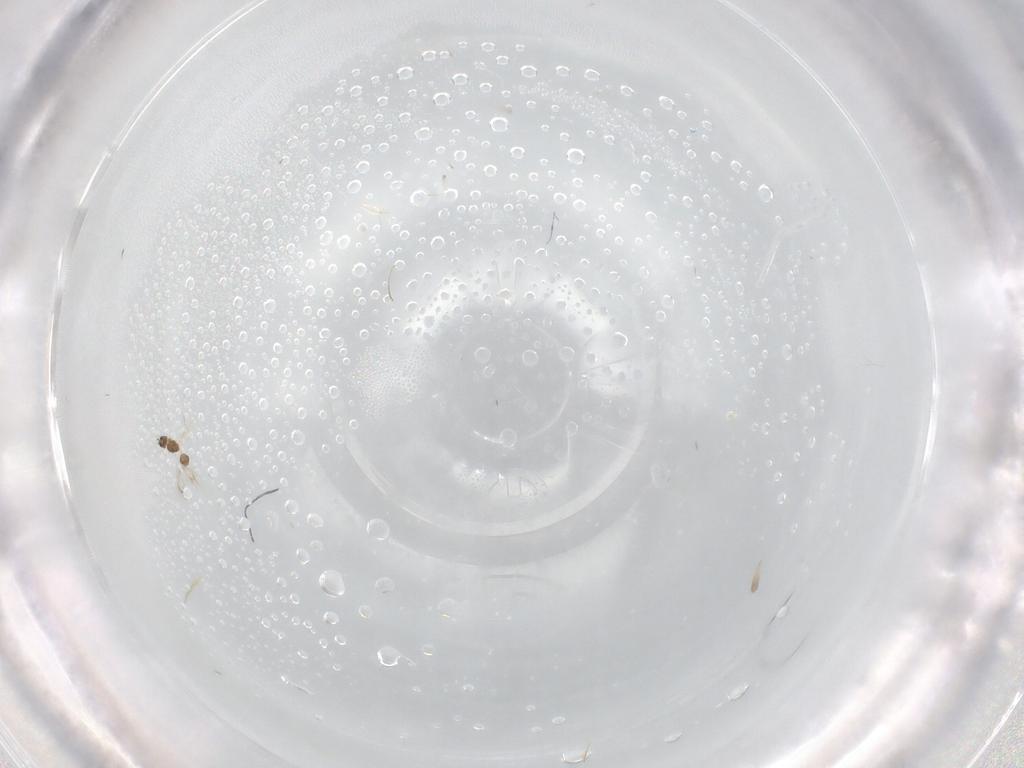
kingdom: Animalia
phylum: Arthropoda
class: Insecta
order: Hymenoptera
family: Mymarommatidae
